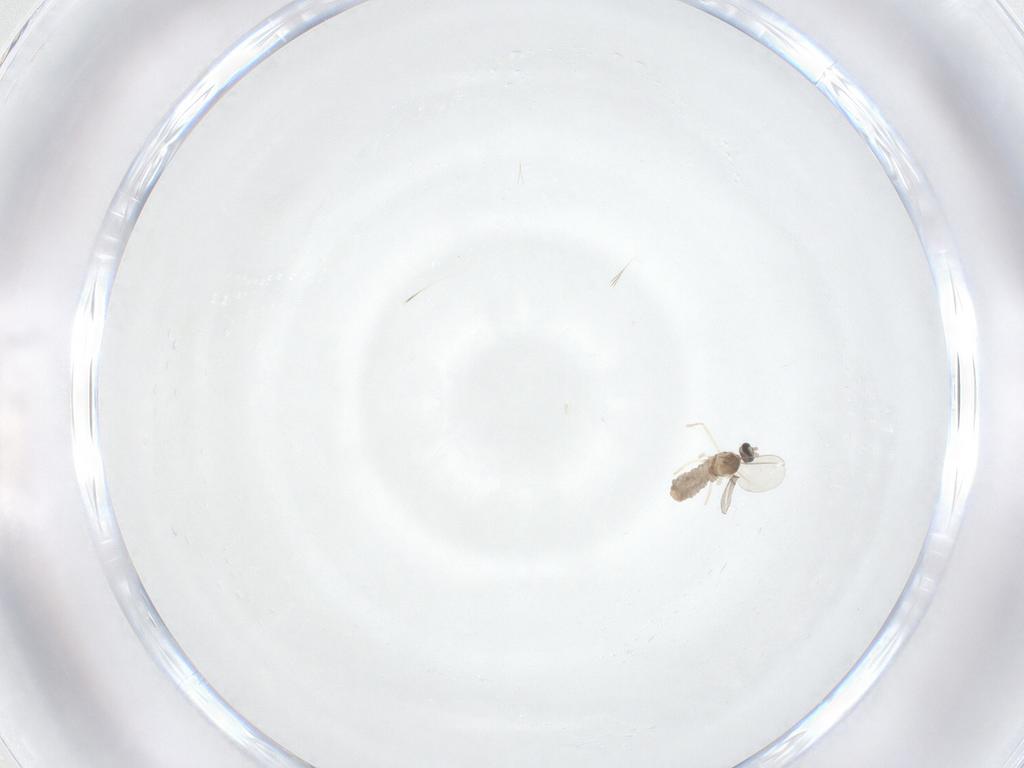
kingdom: Animalia
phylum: Arthropoda
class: Insecta
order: Diptera
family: Cecidomyiidae
